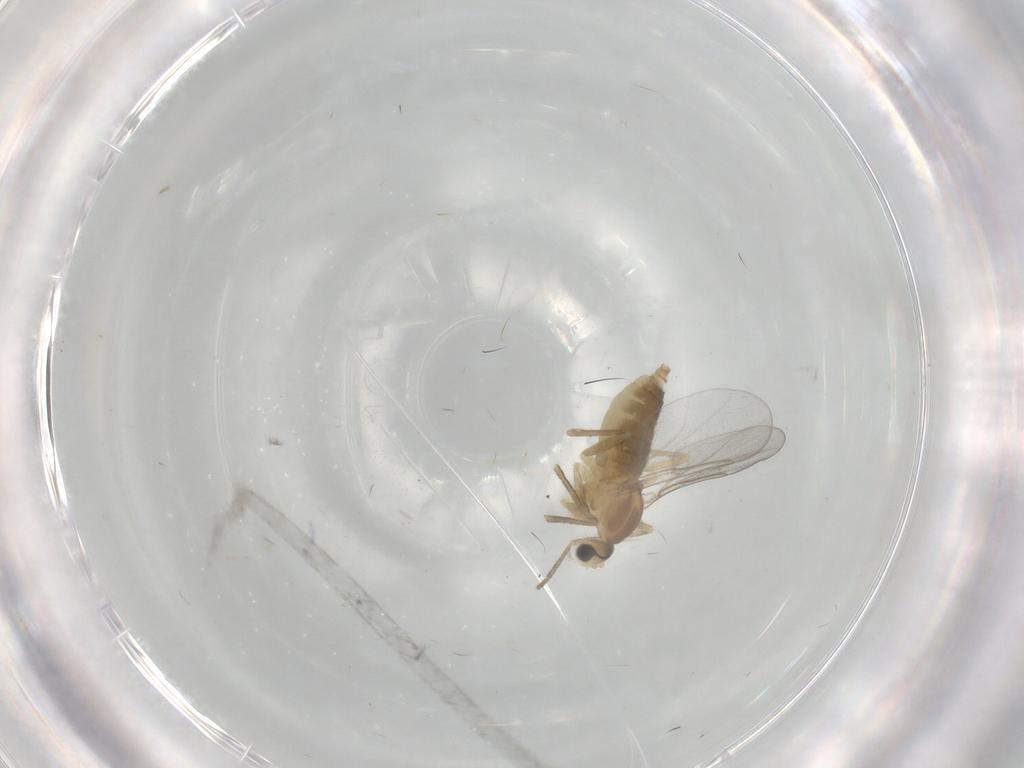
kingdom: Animalia
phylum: Arthropoda
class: Insecta
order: Diptera
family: Cecidomyiidae
